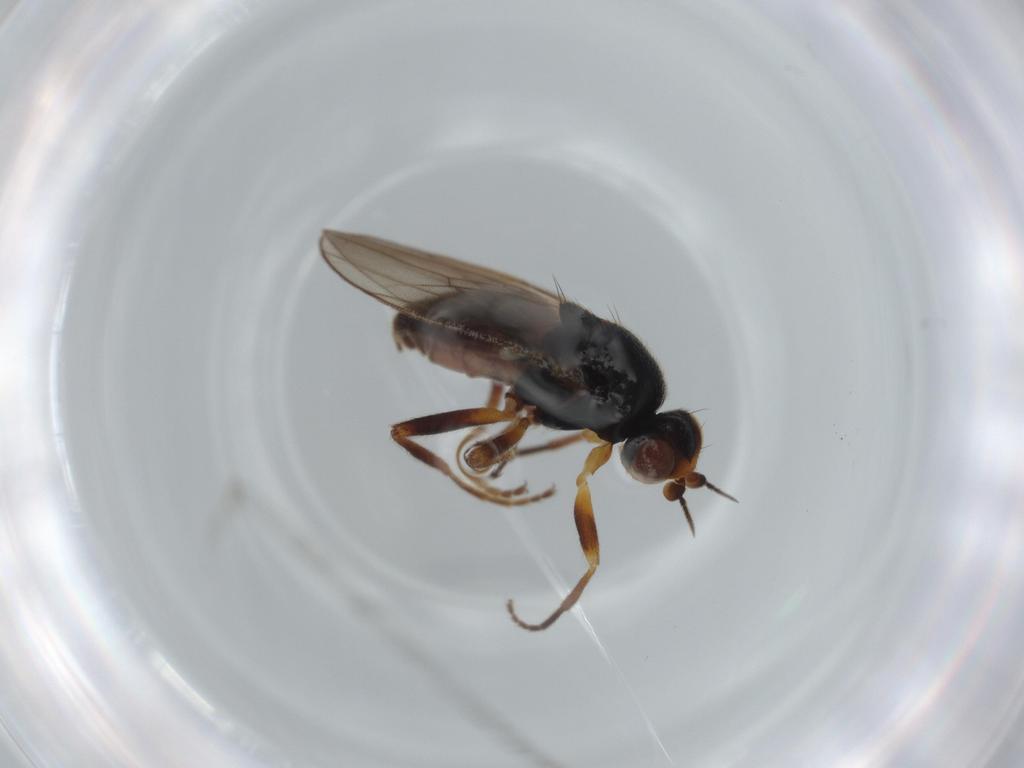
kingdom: Animalia
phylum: Arthropoda
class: Insecta
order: Diptera
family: Chloropidae
